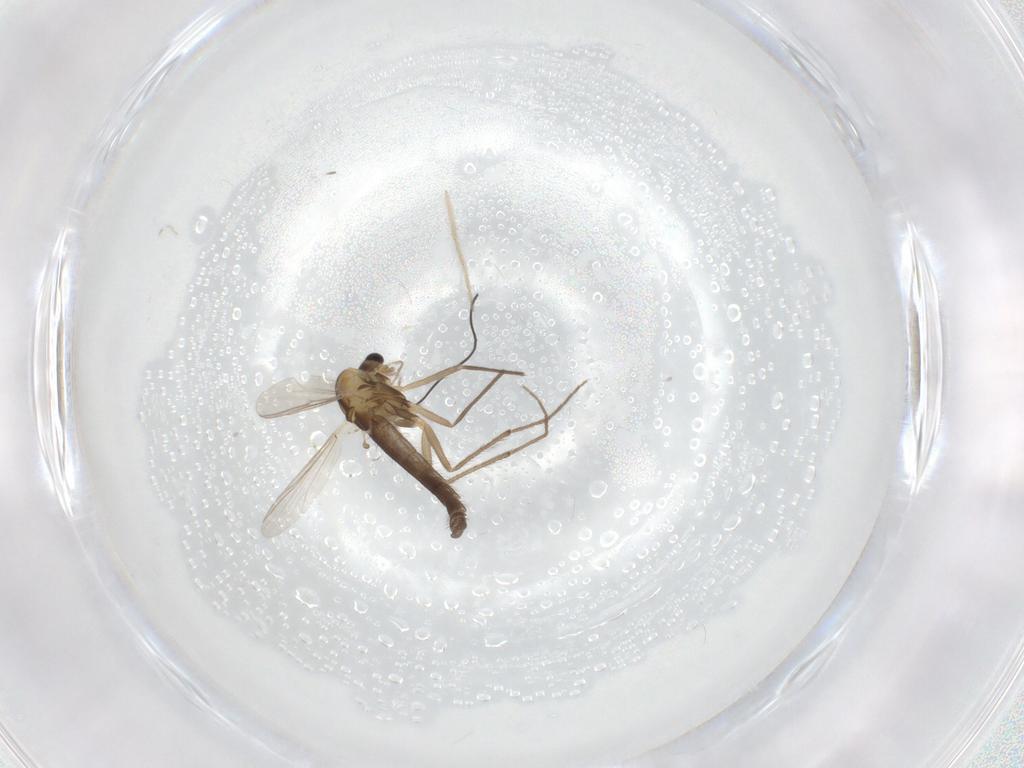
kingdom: Animalia
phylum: Arthropoda
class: Insecta
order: Diptera
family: Chironomidae
